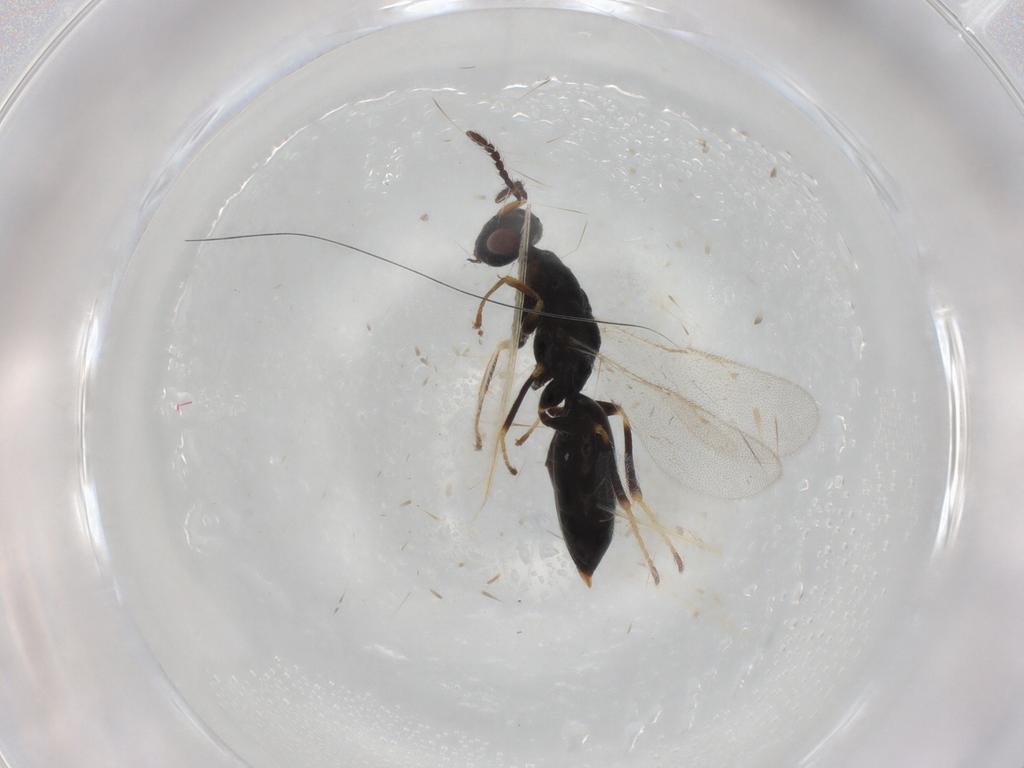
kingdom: Animalia
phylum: Arthropoda
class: Insecta
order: Hymenoptera
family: Eurytomidae
